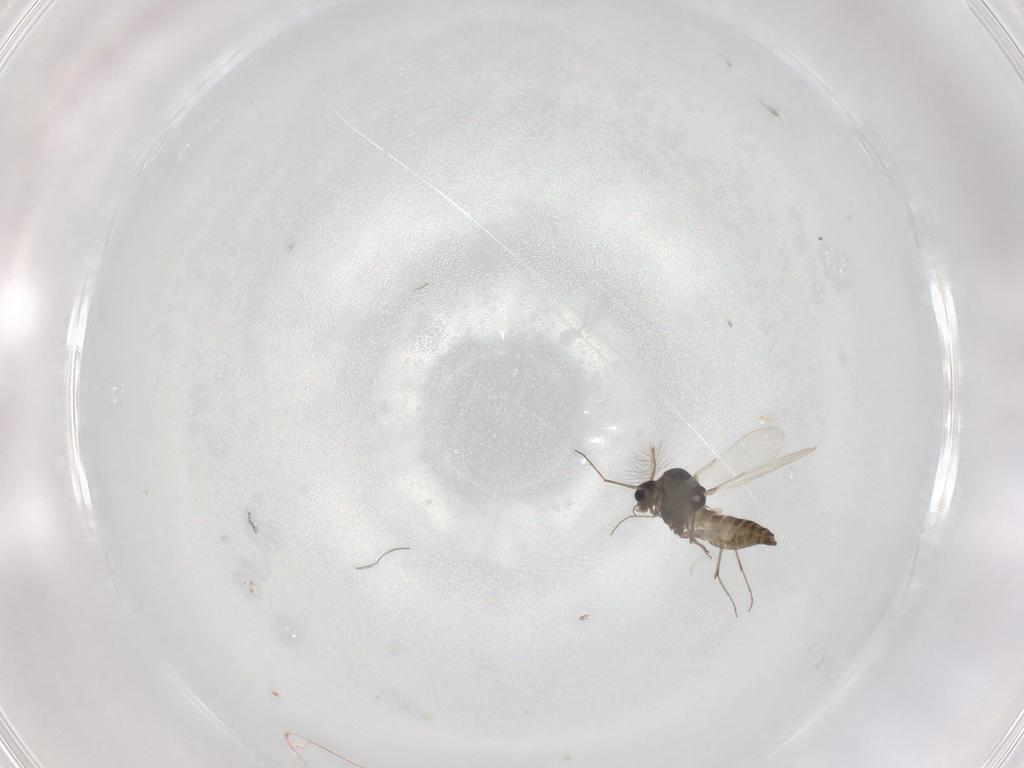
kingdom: Animalia
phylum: Arthropoda
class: Insecta
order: Diptera
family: Chironomidae
